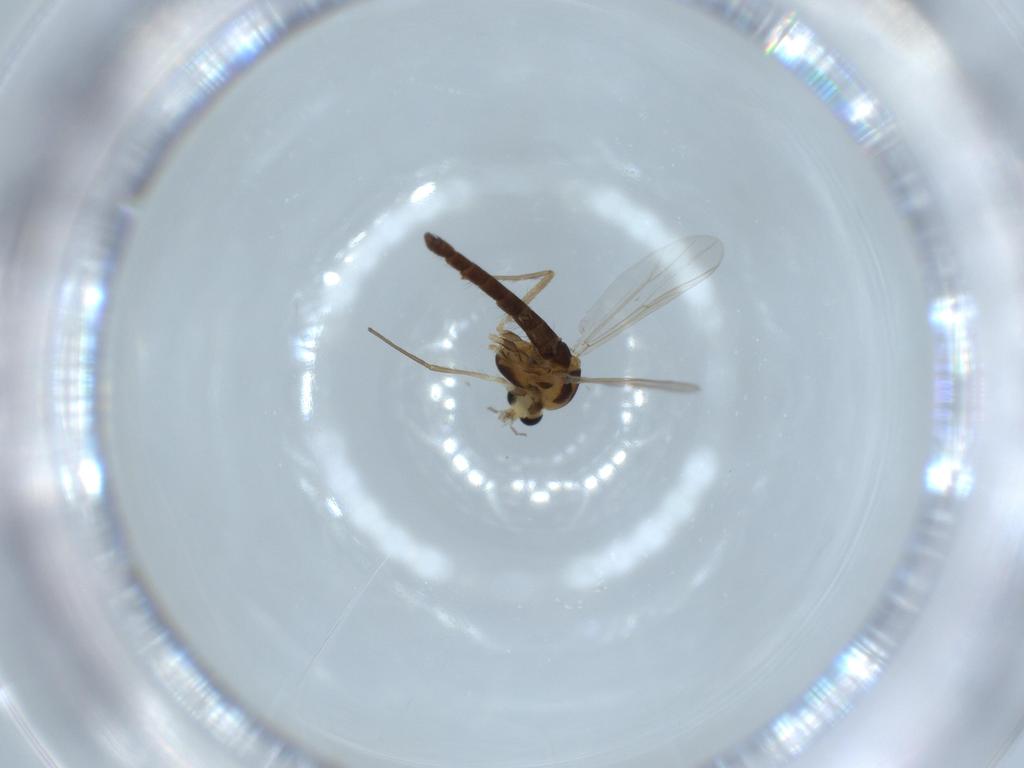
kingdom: Animalia
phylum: Arthropoda
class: Insecta
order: Diptera
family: Chironomidae
